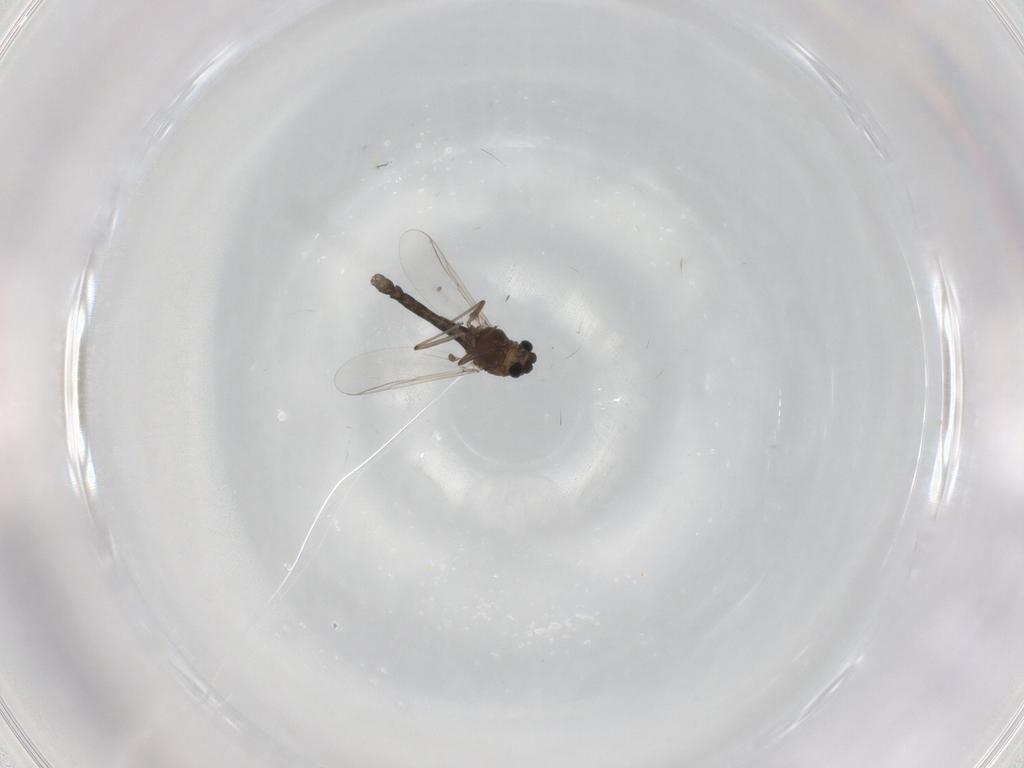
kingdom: Animalia
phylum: Arthropoda
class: Insecta
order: Diptera
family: Chironomidae
